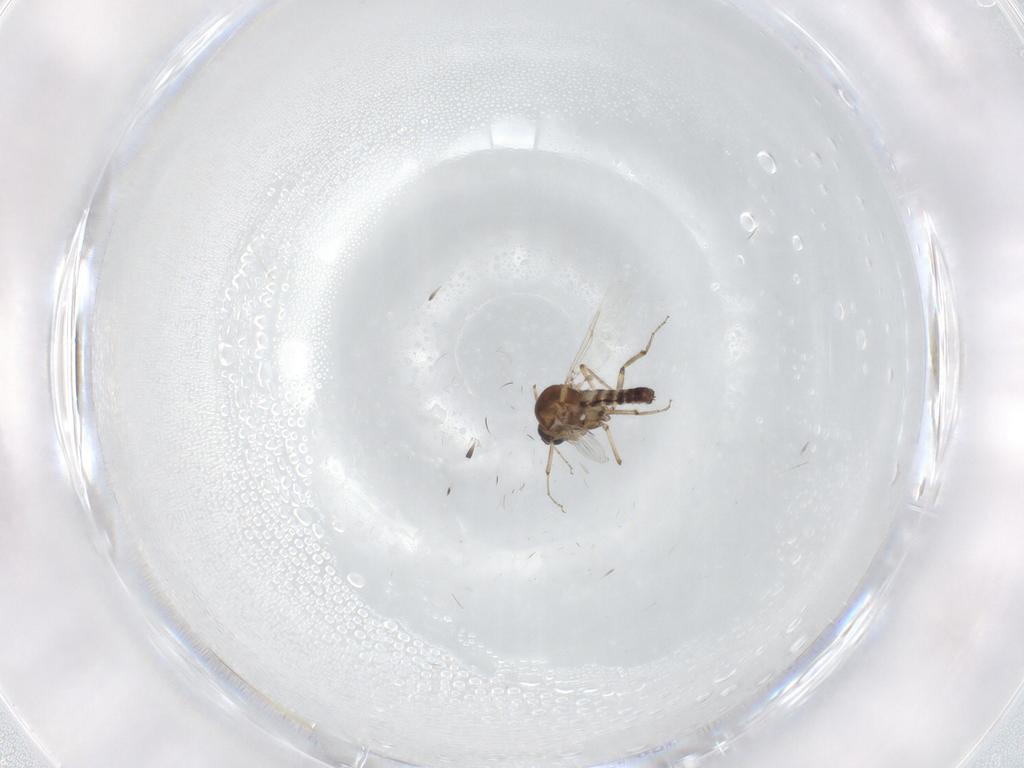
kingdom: Animalia
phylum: Arthropoda
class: Insecta
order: Diptera
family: Ceratopogonidae
